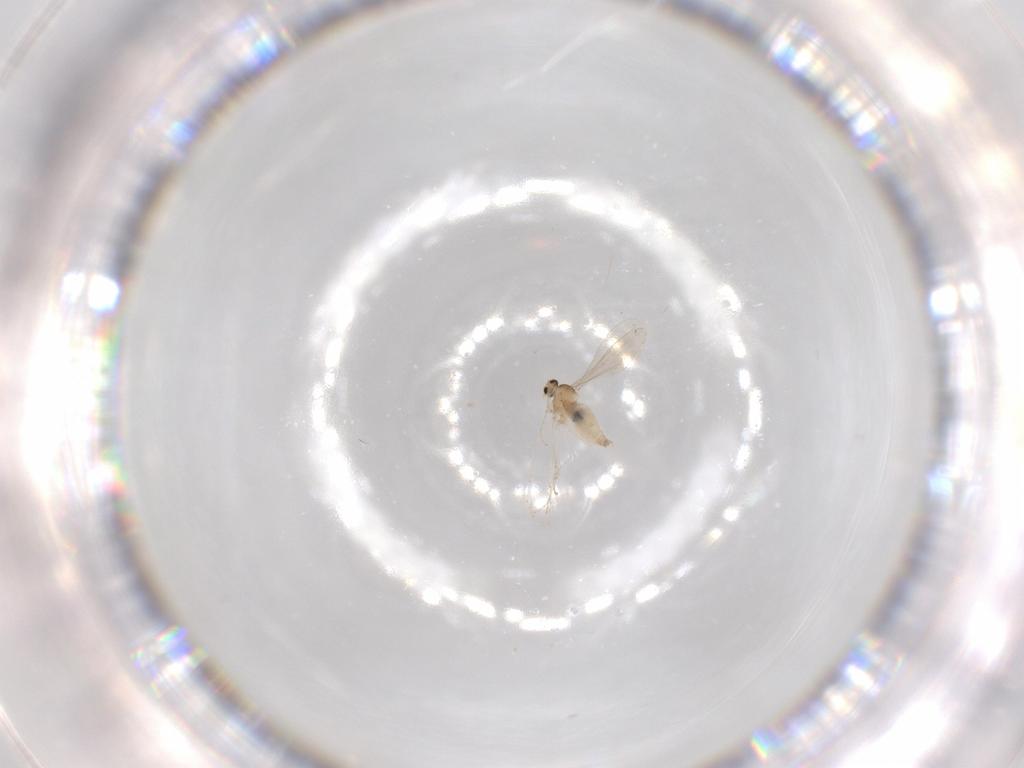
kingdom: Animalia
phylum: Arthropoda
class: Insecta
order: Diptera
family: Cecidomyiidae
